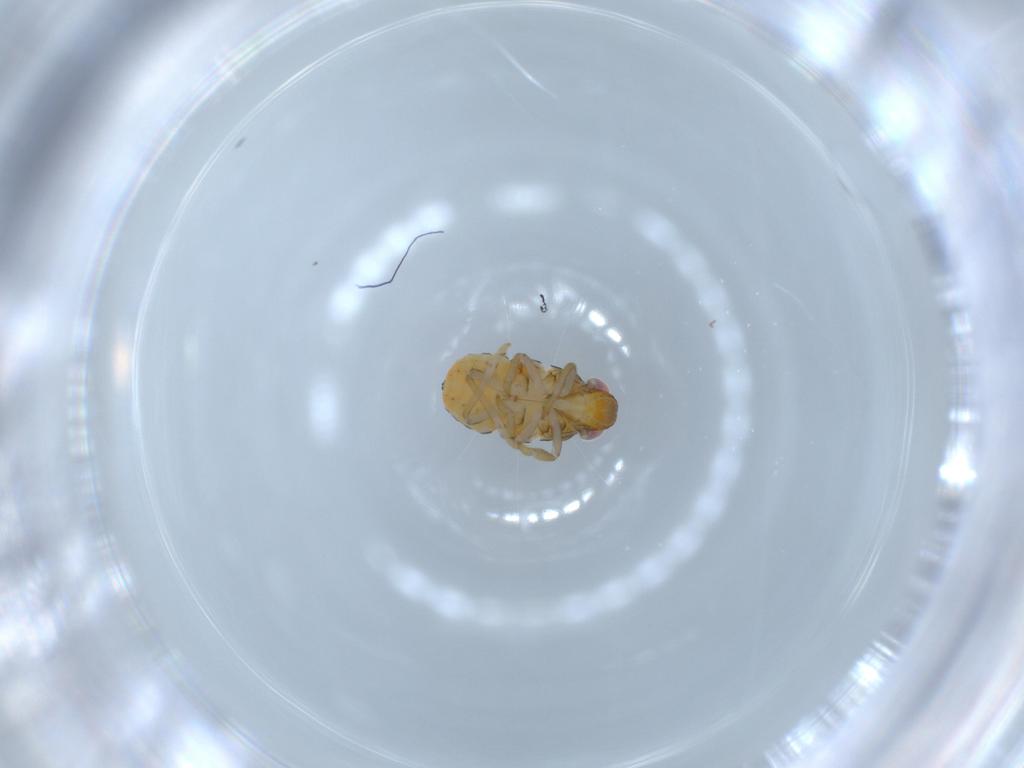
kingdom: Animalia
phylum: Arthropoda
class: Insecta
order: Hemiptera
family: Issidae
